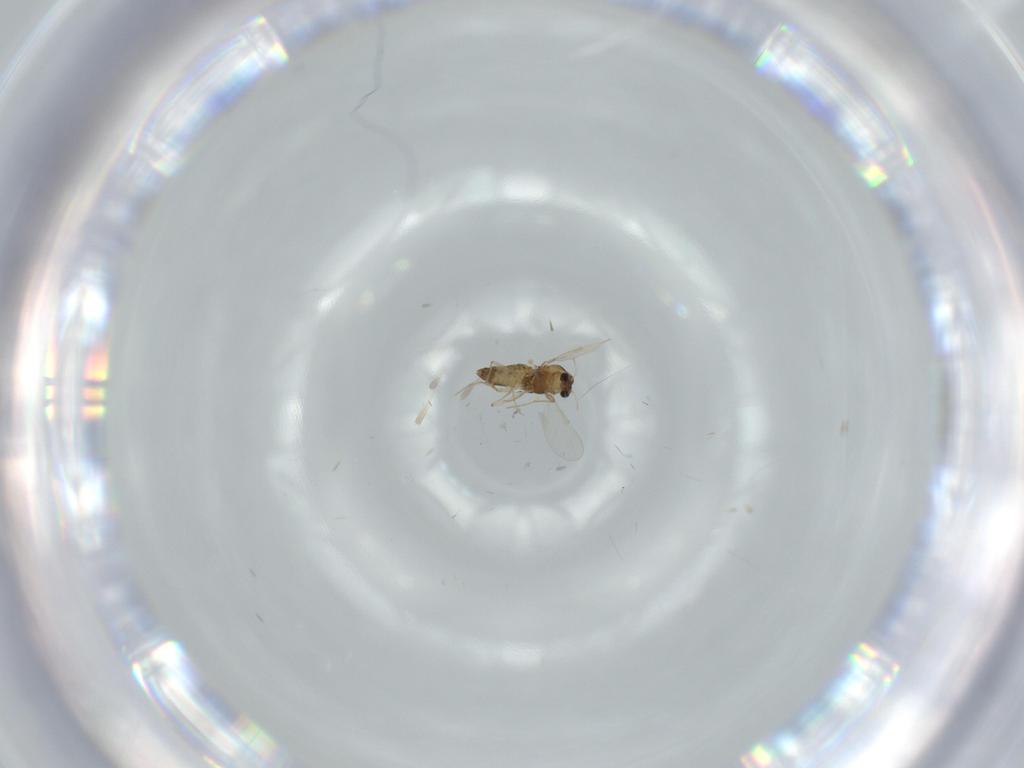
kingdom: Animalia
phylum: Arthropoda
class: Insecta
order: Diptera
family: Chironomidae
